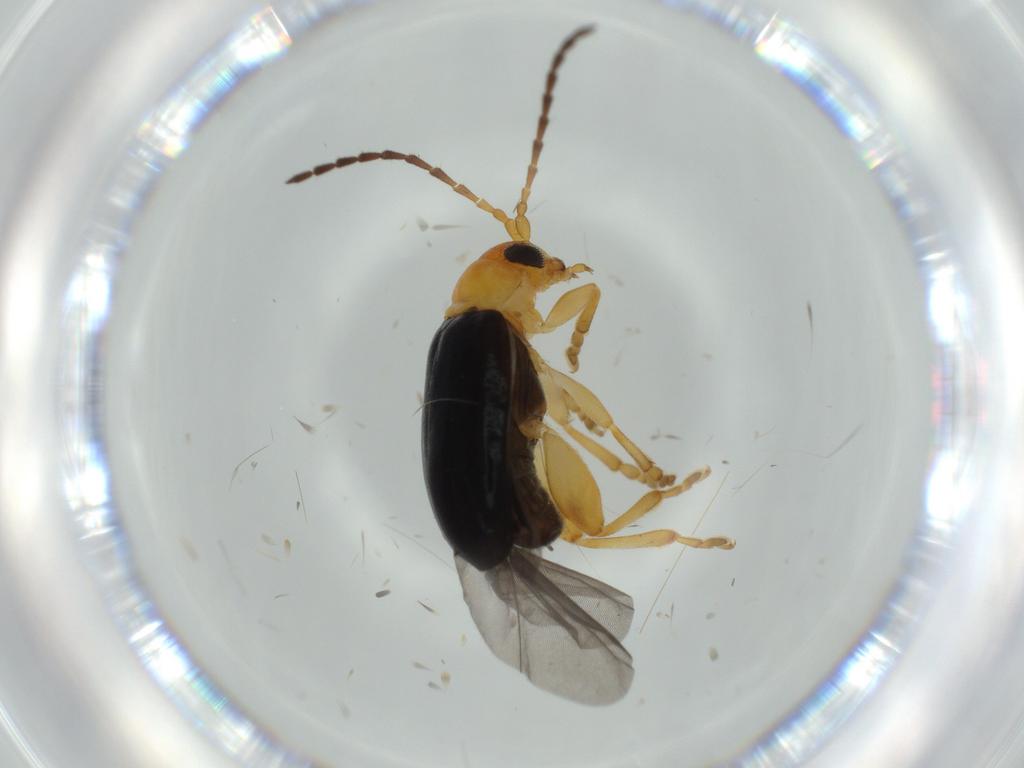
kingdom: Animalia
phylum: Arthropoda
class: Insecta
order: Coleoptera
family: Chrysomelidae
